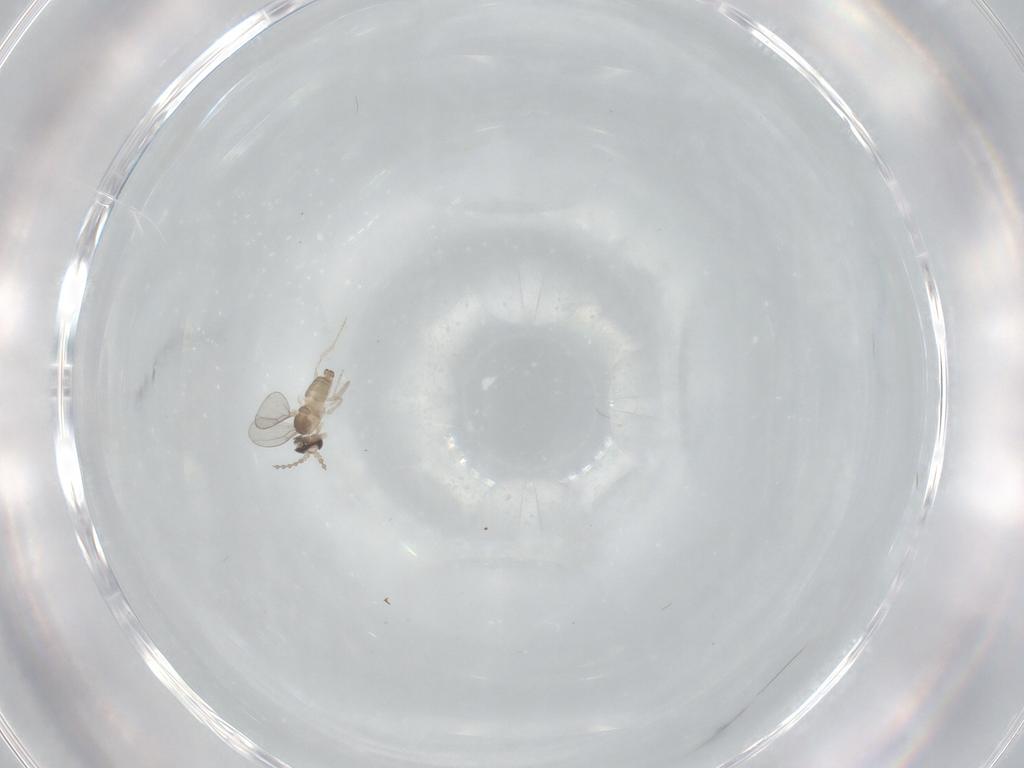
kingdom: Animalia
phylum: Arthropoda
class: Insecta
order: Diptera
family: Cecidomyiidae
